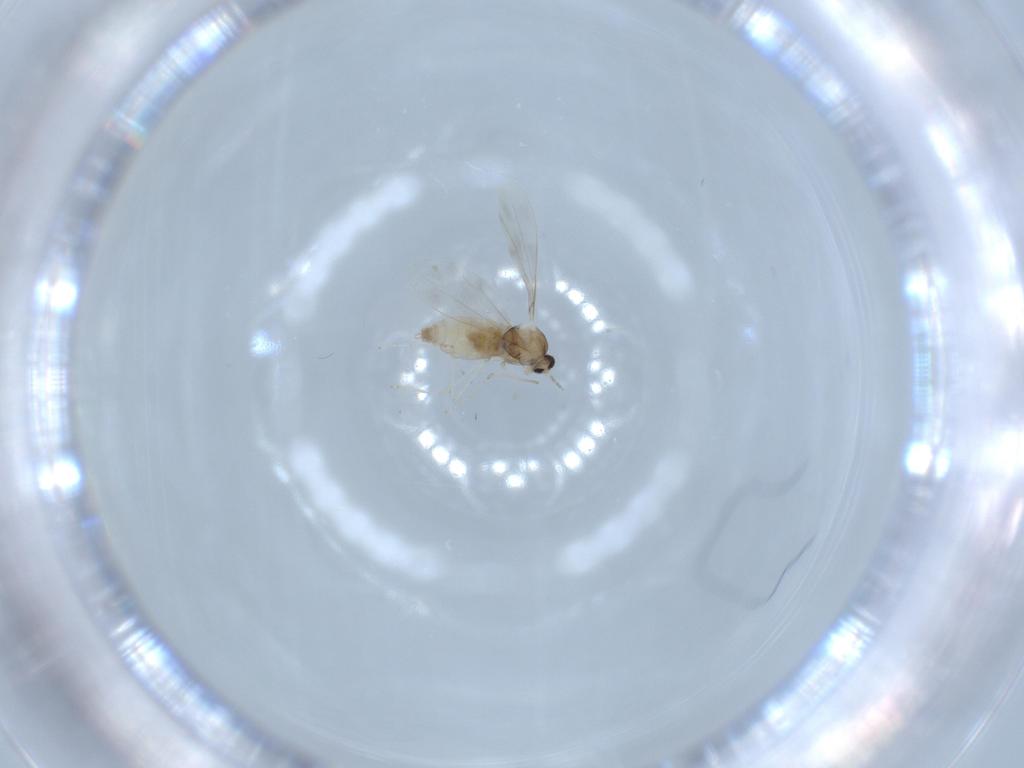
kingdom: Animalia
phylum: Arthropoda
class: Insecta
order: Diptera
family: Cecidomyiidae
